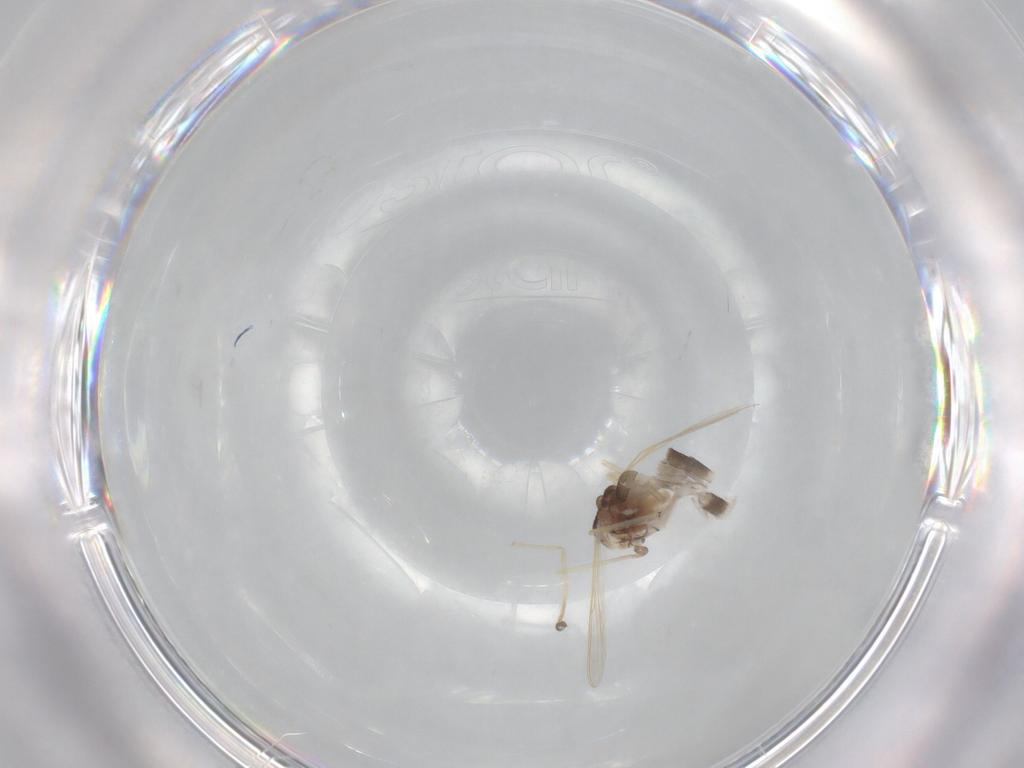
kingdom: Animalia
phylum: Arthropoda
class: Insecta
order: Diptera
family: Chironomidae
